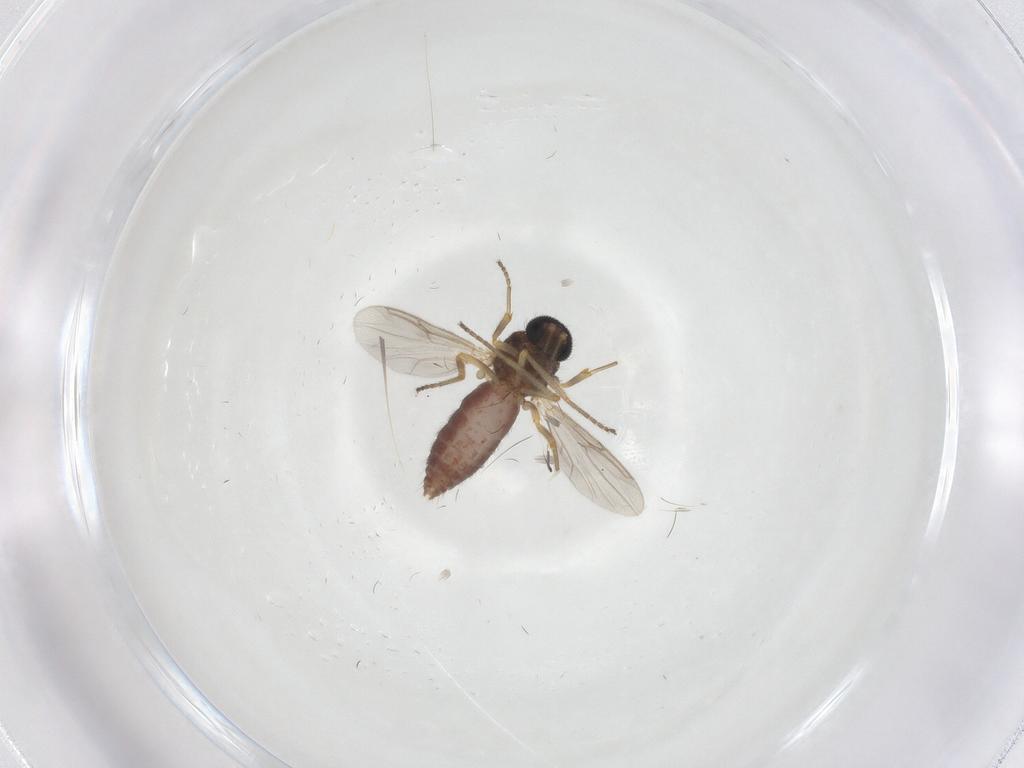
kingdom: Animalia
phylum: Arthropoda
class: Insecta
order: Diptera
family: Ceratopogonidae
